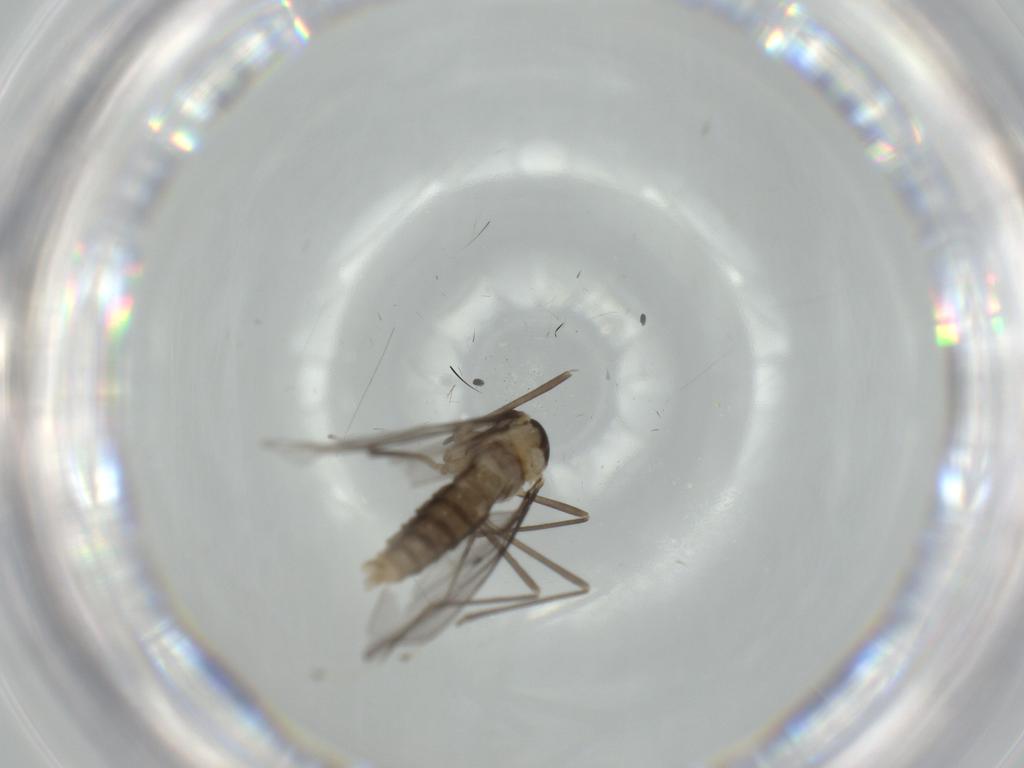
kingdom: Animalia
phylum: Arthropoda
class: Insecta
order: Diptera
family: Cecidomyiidae
